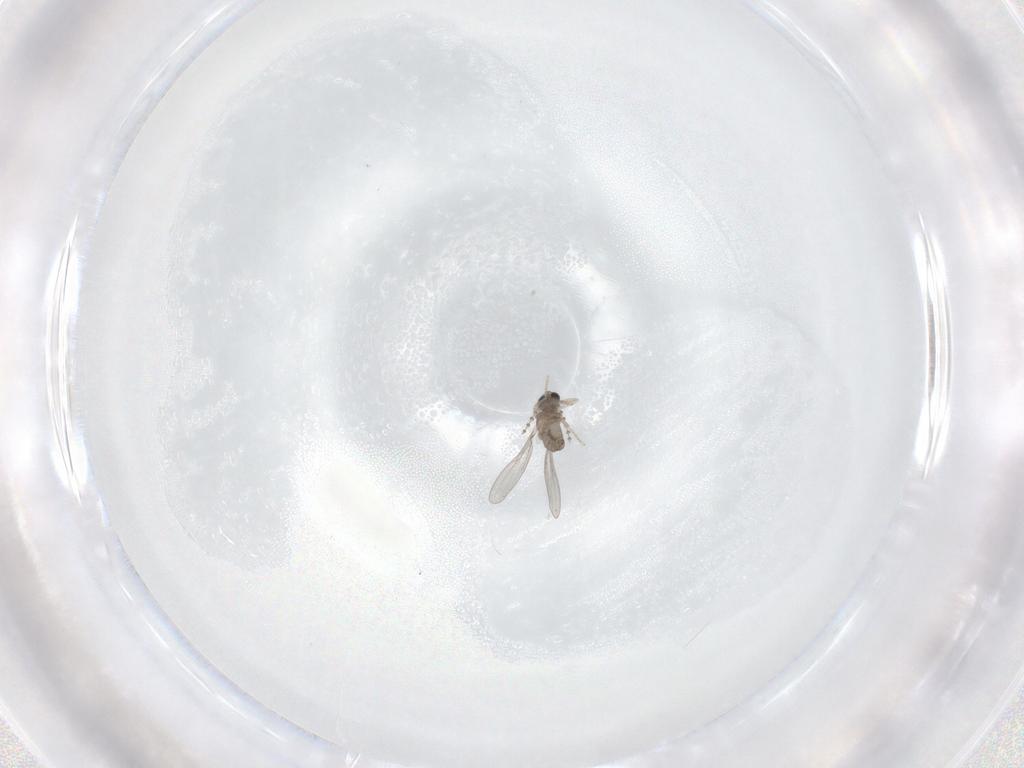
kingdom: Animalia
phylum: Arthropoda
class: Insecta
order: Diptera
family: Cecidomyiidae
